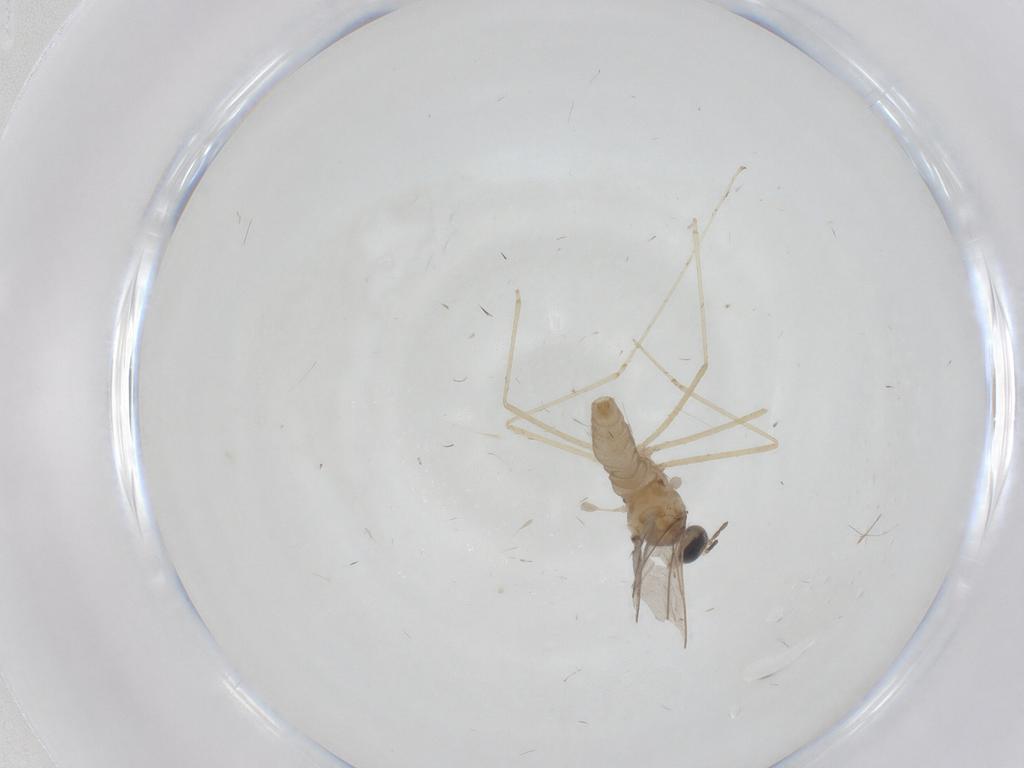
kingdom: Animalia
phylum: Arthropoda
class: Insecta
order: Diptera
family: Cecidomyiidae
